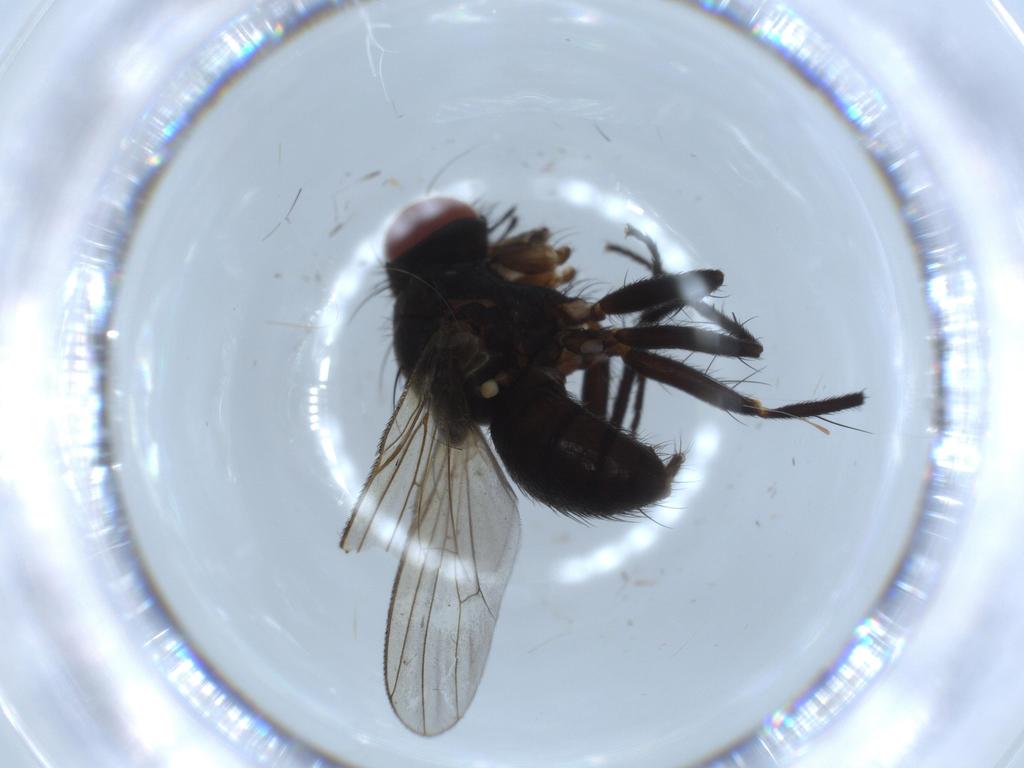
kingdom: Animalia
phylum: Arthropoda
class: Insecta
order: Diptera
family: Muscidae
